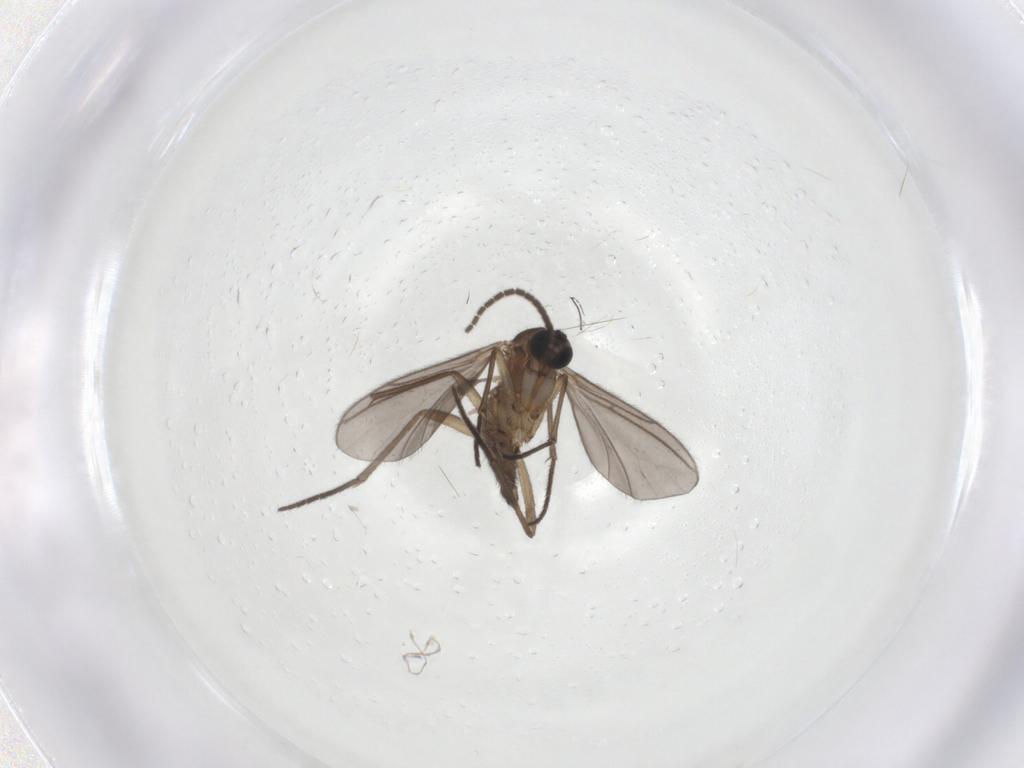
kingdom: Animalia
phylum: Arthropoda
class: Insecta
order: Diptera
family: Sciaridae
